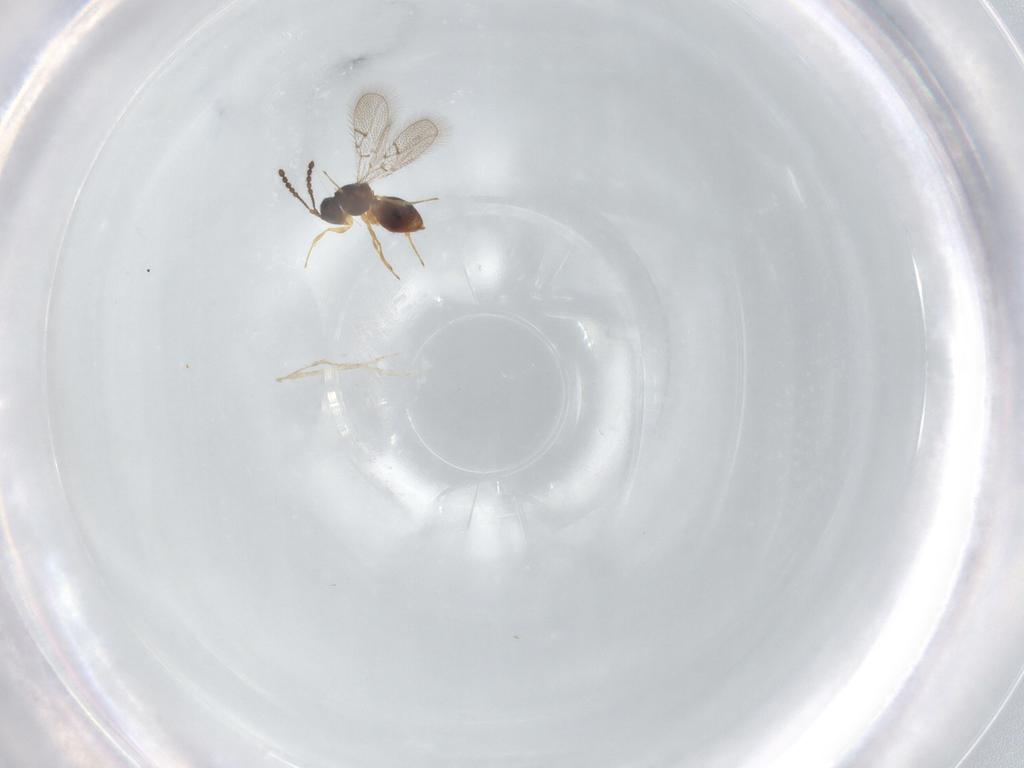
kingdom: Animalia
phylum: Arthropoda
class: Insecta
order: Hymenoptera
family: Figitidae
